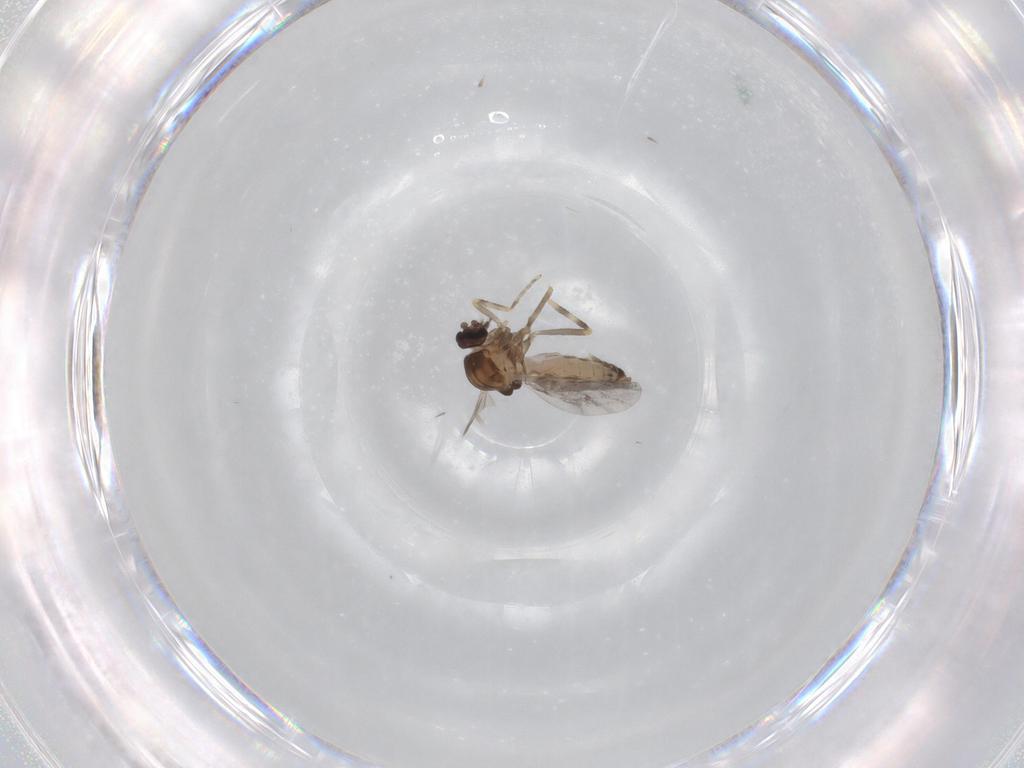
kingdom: Animalia
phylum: Arthropoda
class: Insecta
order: Diptera
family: Ceratopogonidae
